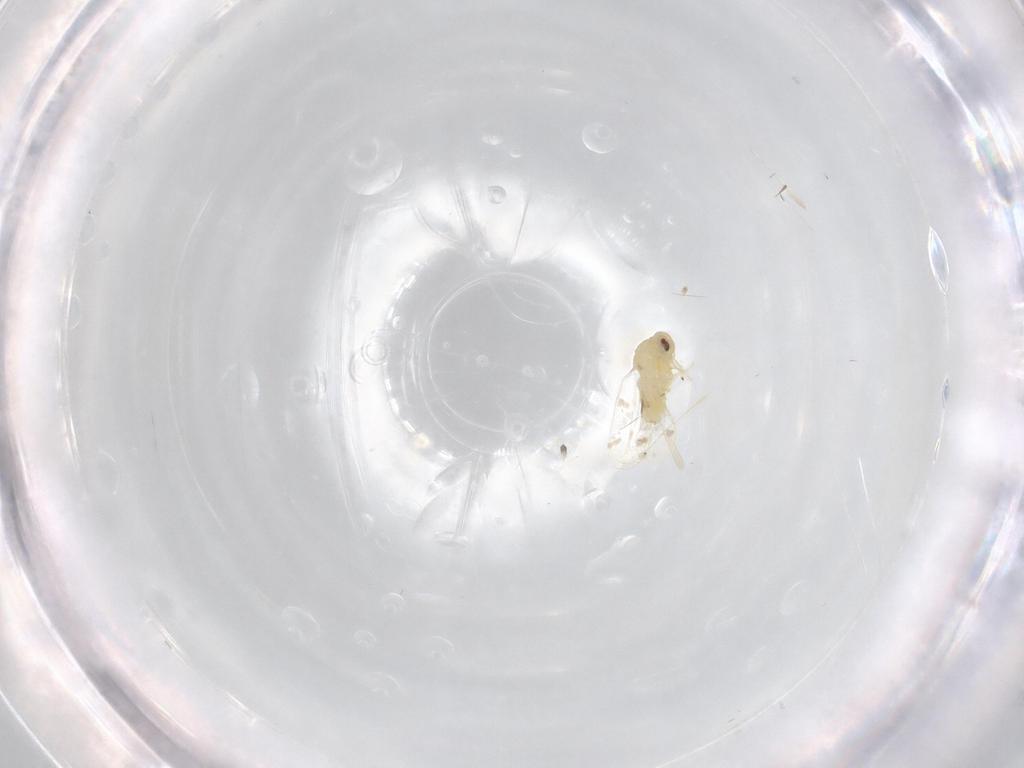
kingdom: Animalia
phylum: Arthropoda
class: Insecta
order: Hemiptera
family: Aleyrodidae
